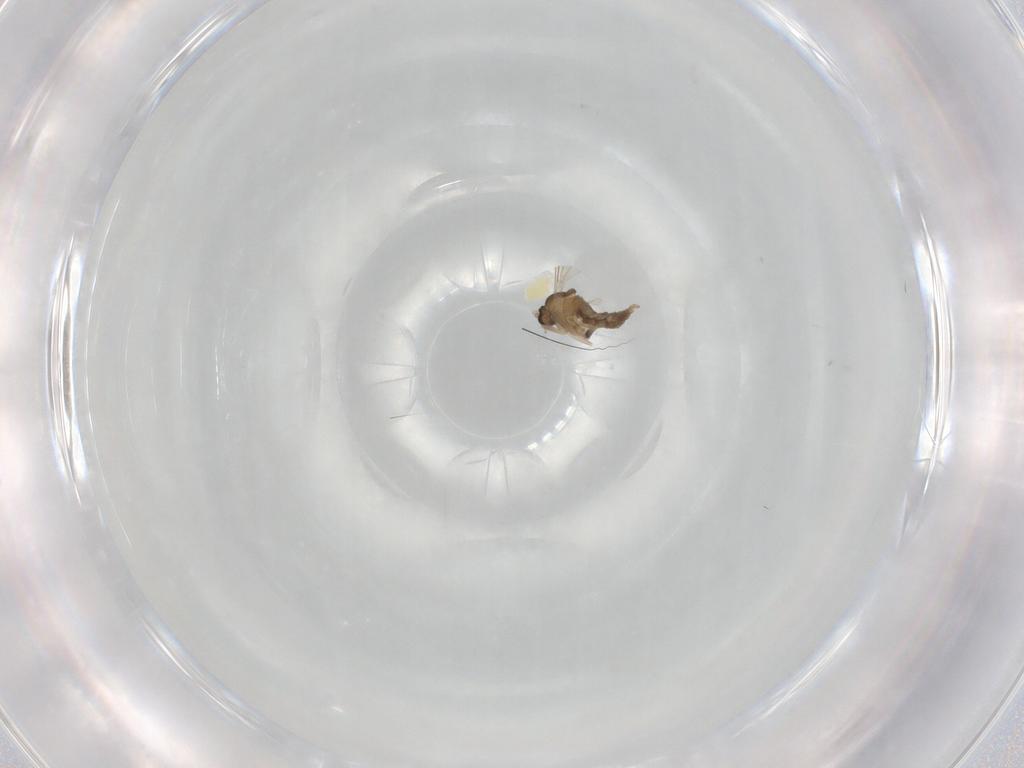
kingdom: Animalia
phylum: Arthropoda
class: Insecta
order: Diptera
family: Cecidomyiidae
